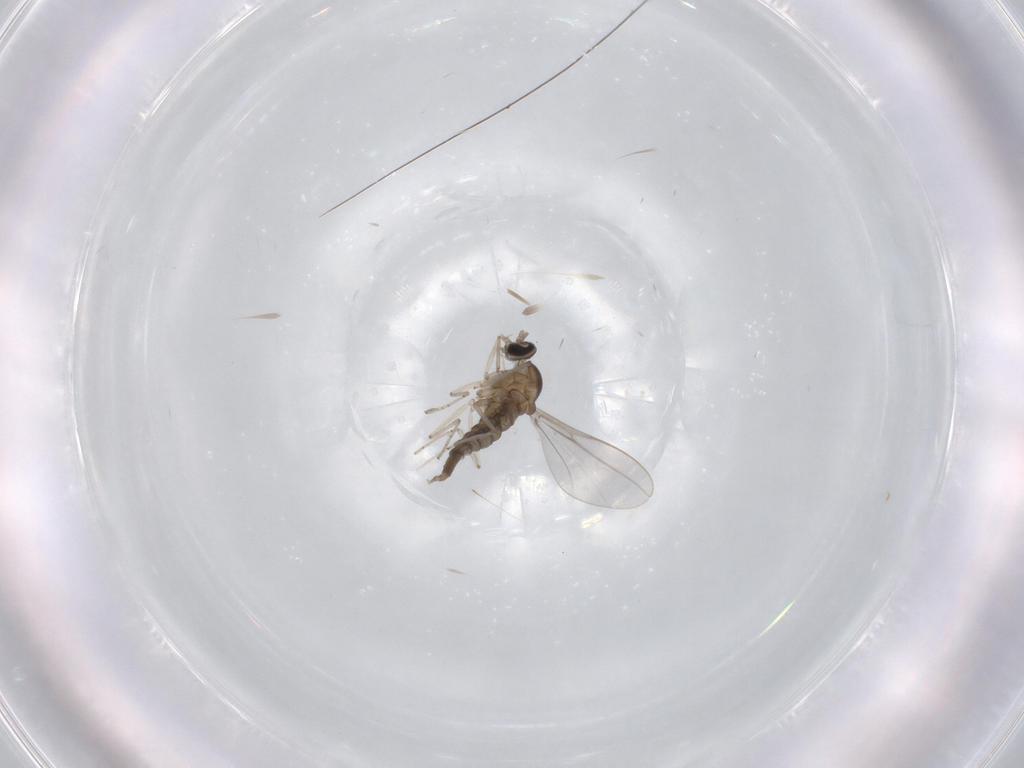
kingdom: Animalia
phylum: Arthropoda
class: Insecta
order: Diptera
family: Cecidomyiidae
